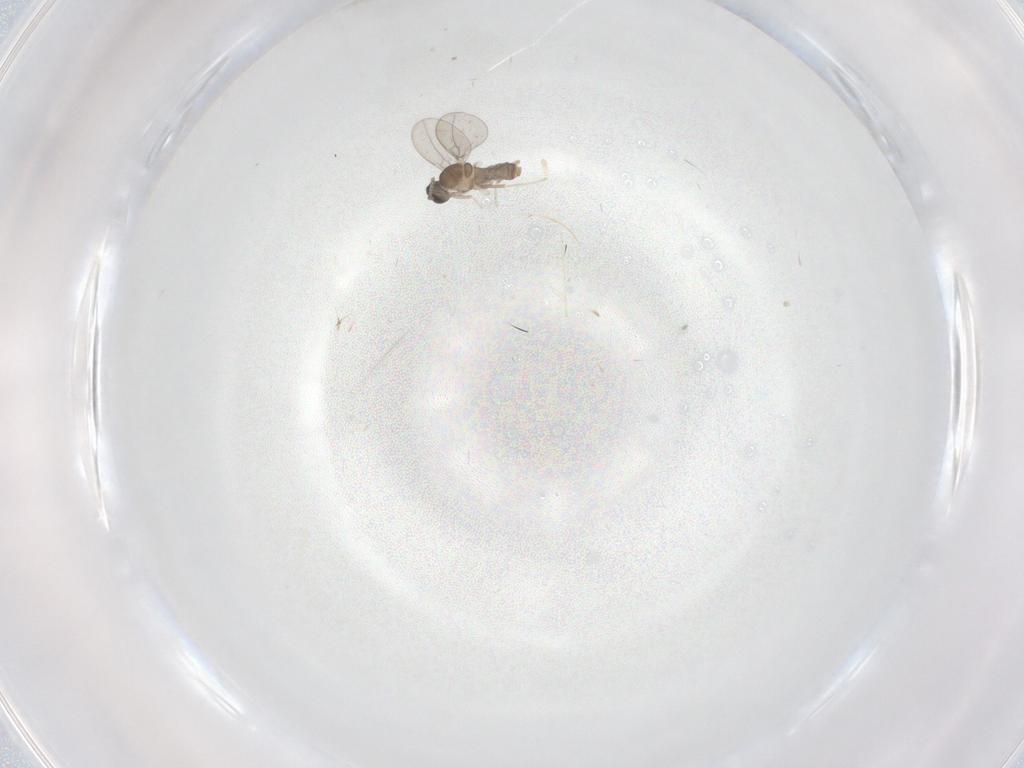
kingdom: Animalia
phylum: Arthropoda
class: Insecta
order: Diptera
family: Cecidomyiidae
